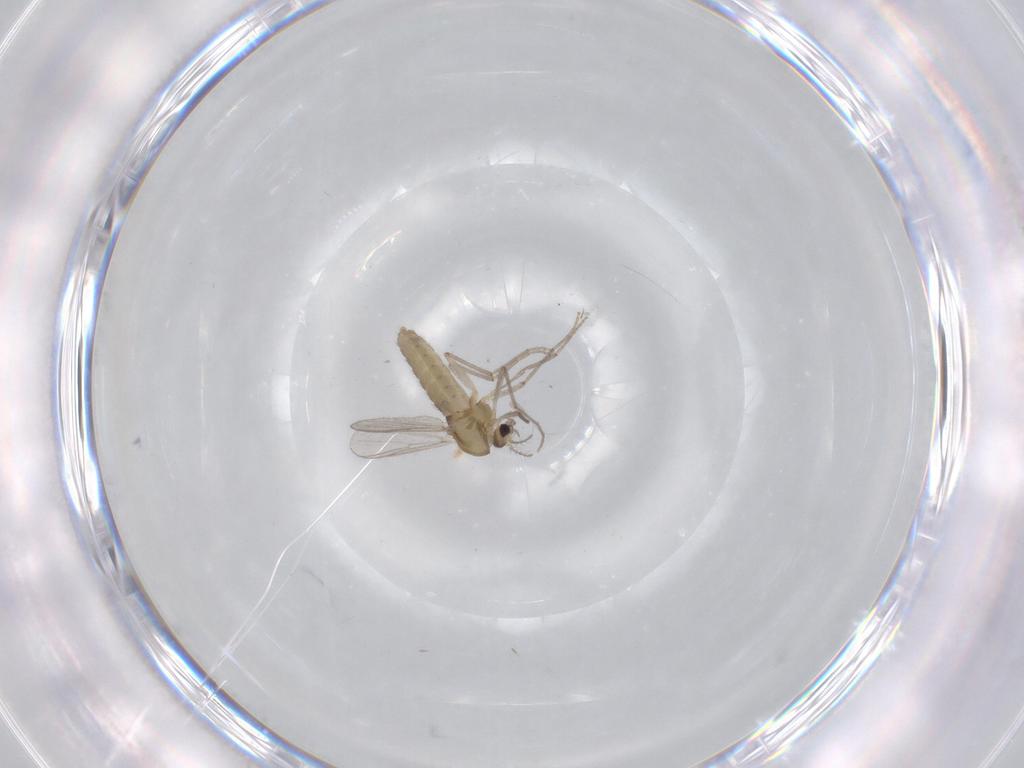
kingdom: Animalia
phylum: Arthropoda
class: Insecta
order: Diptera
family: Chironomidae
